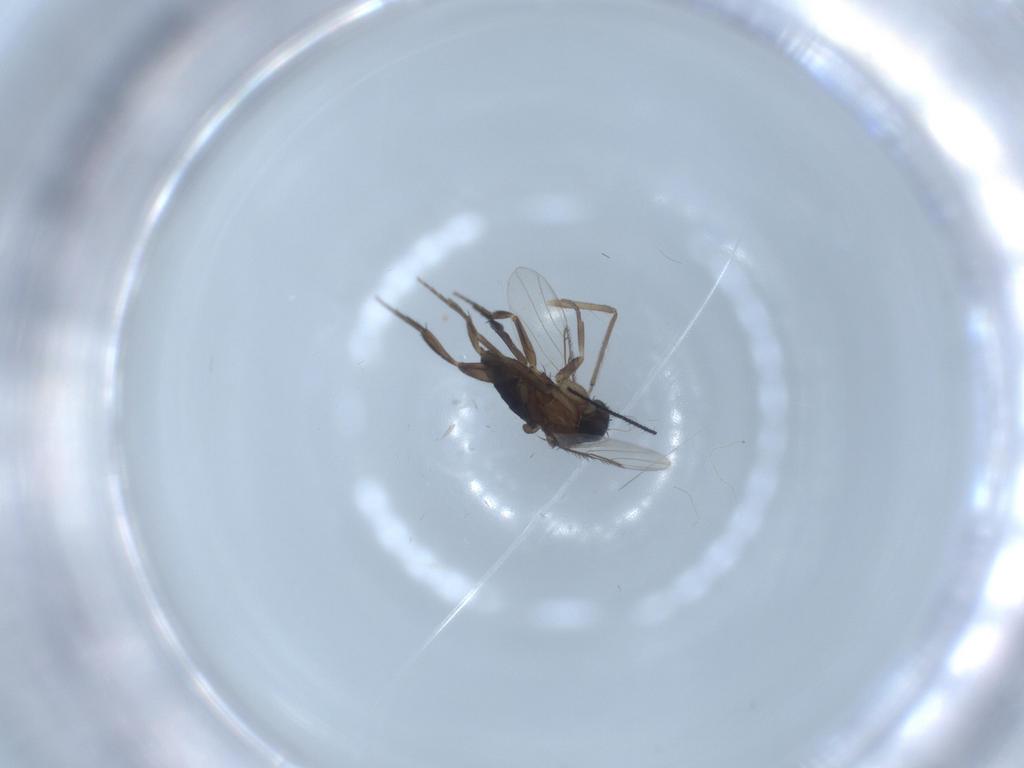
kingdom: Animalia
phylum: Arthropoda
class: Insecta
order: Diptera
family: Phoridae
